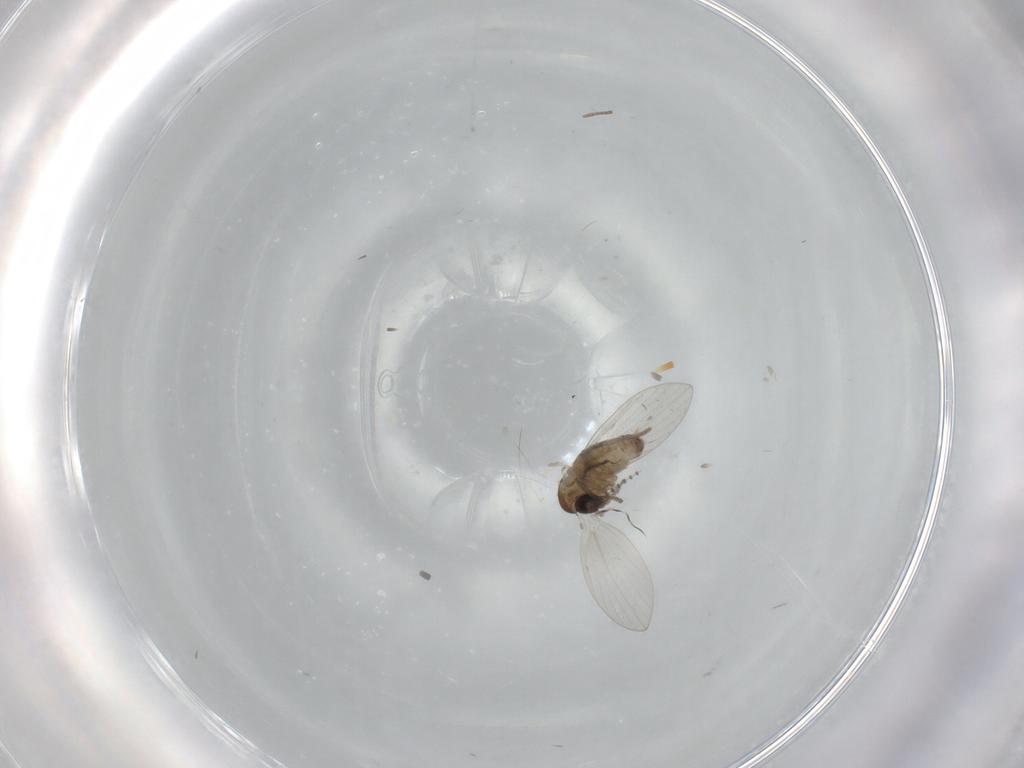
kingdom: Animalia
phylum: Arthropoda
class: Insecta
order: Diptera
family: Psychodidae
